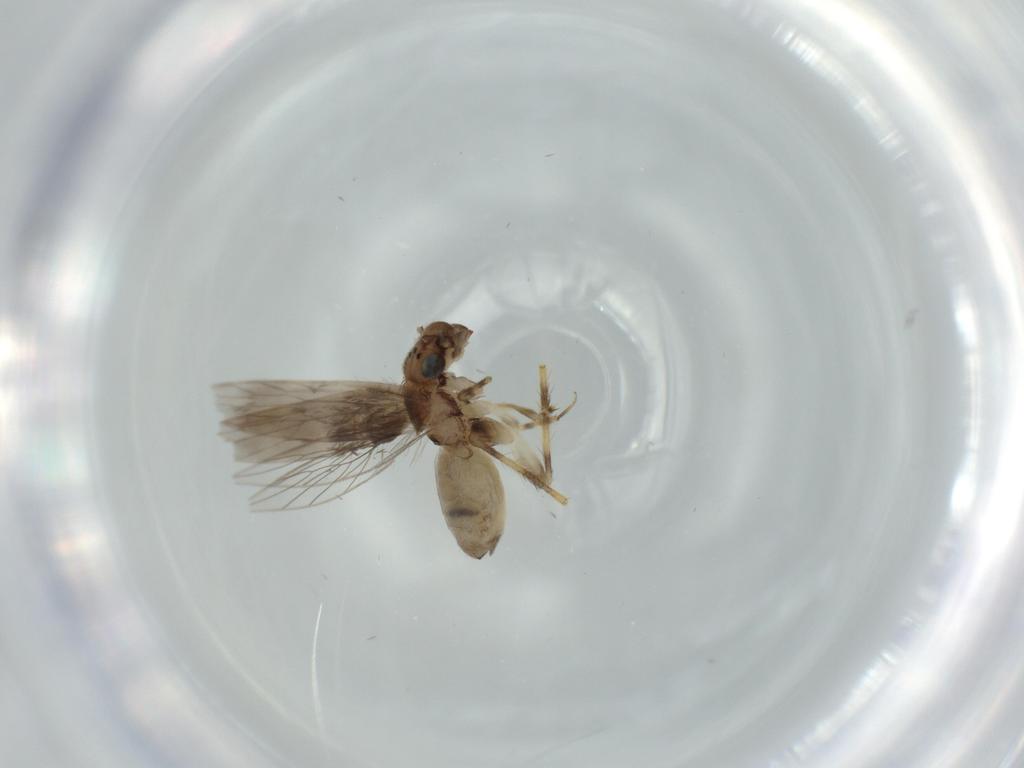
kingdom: Animalia
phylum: Arthropoda
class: Insecta
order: Psocodea
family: Lepidopsocidae
